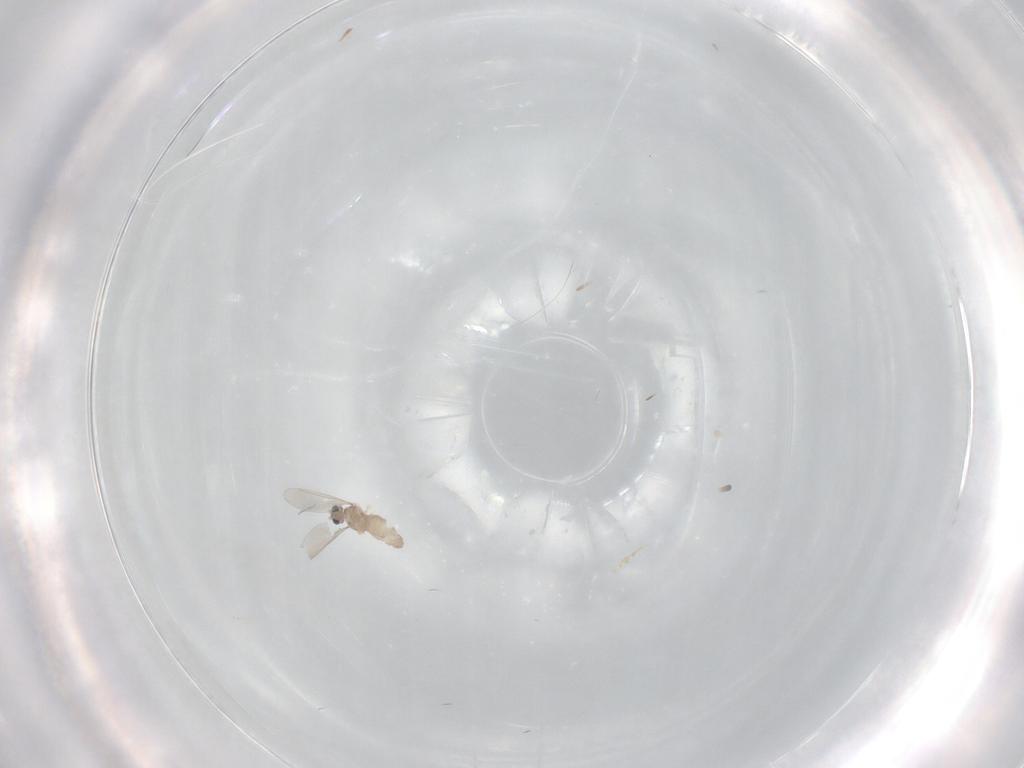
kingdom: Animalia
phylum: Arthropoda
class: Insecta
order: Diptera
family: Cecidomyiidae
